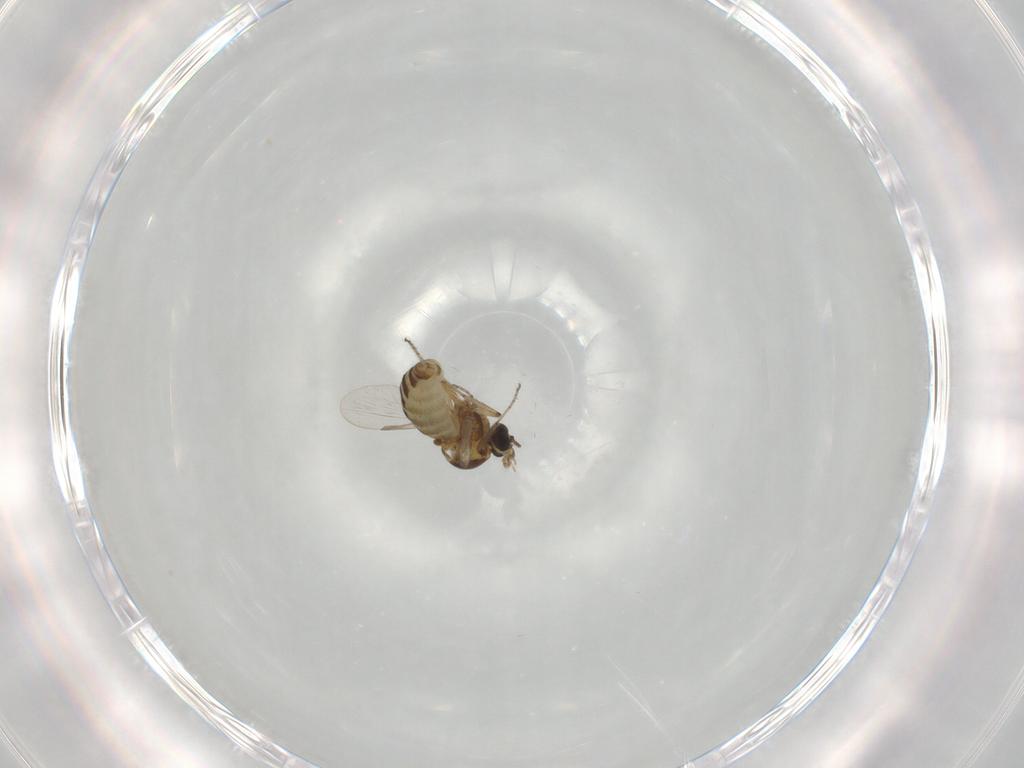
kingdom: Animalia
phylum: Arthropoda
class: Insecta
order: Diptera
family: Ceratopogonidae
